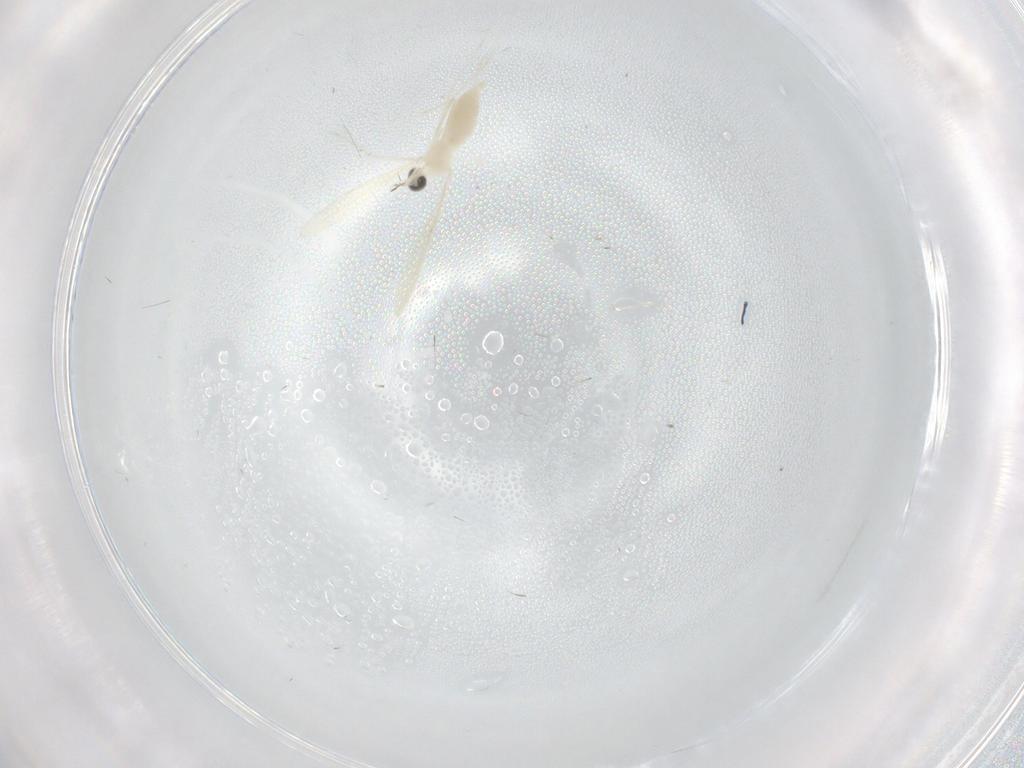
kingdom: Animalia
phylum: Arthropoda
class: Insecta
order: Diptera
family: Cecidomyiidae
